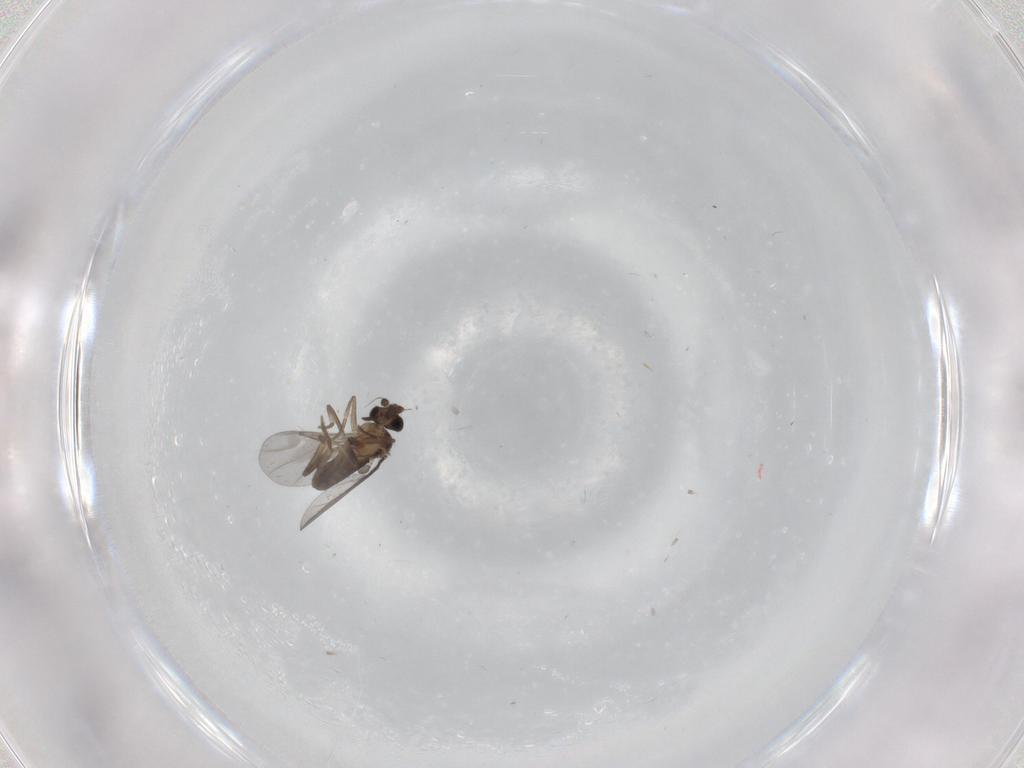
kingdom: Animalia
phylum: Arthropoda
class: Insecta
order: Diptera
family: Phoridae
